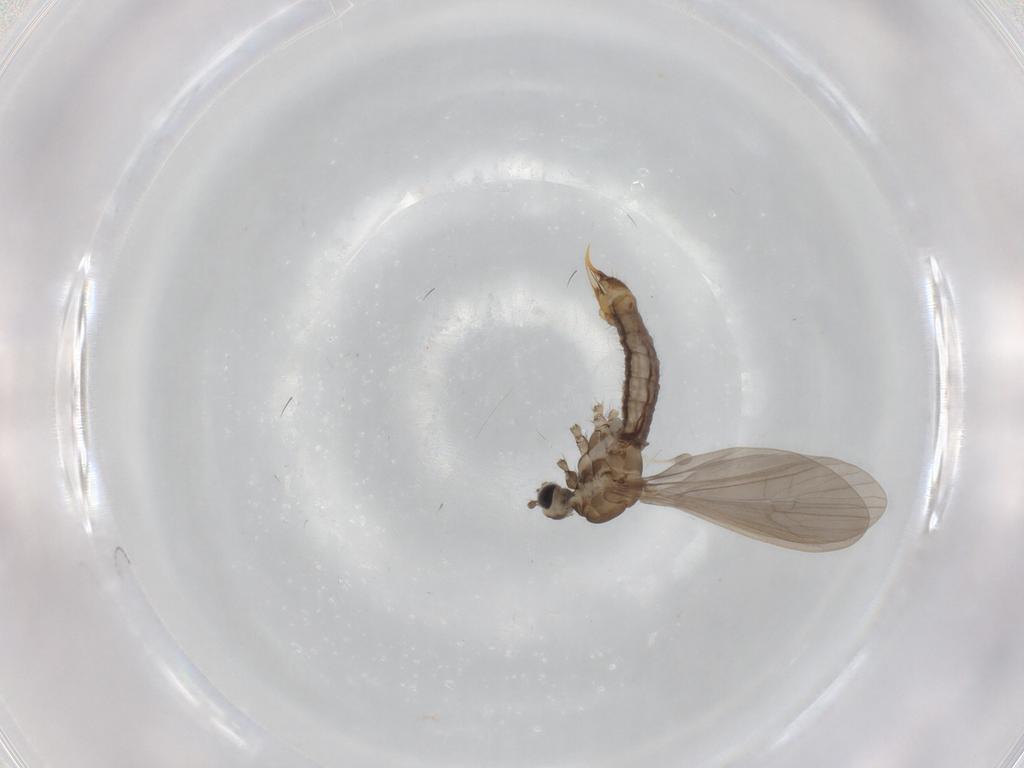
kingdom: Animalia
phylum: Arthropoda
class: Insecta
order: Diptera
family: Limoniidae
